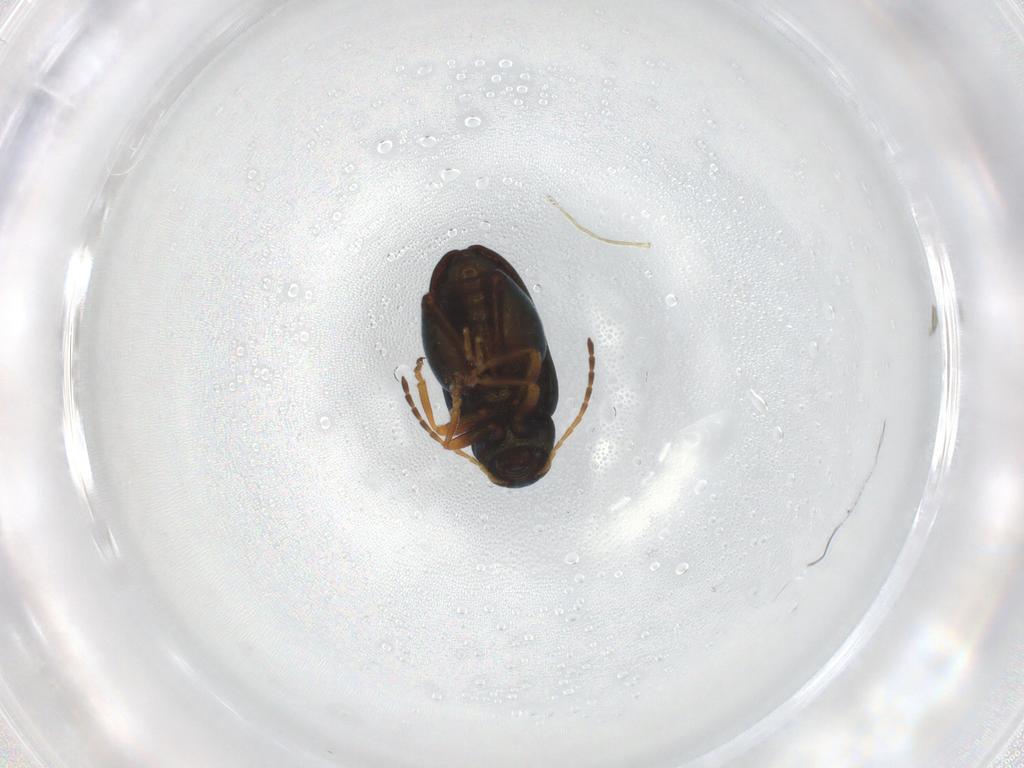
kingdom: Animalia
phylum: Arthropoda
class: Insecta
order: Coleoptera
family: Chrysomelidae
